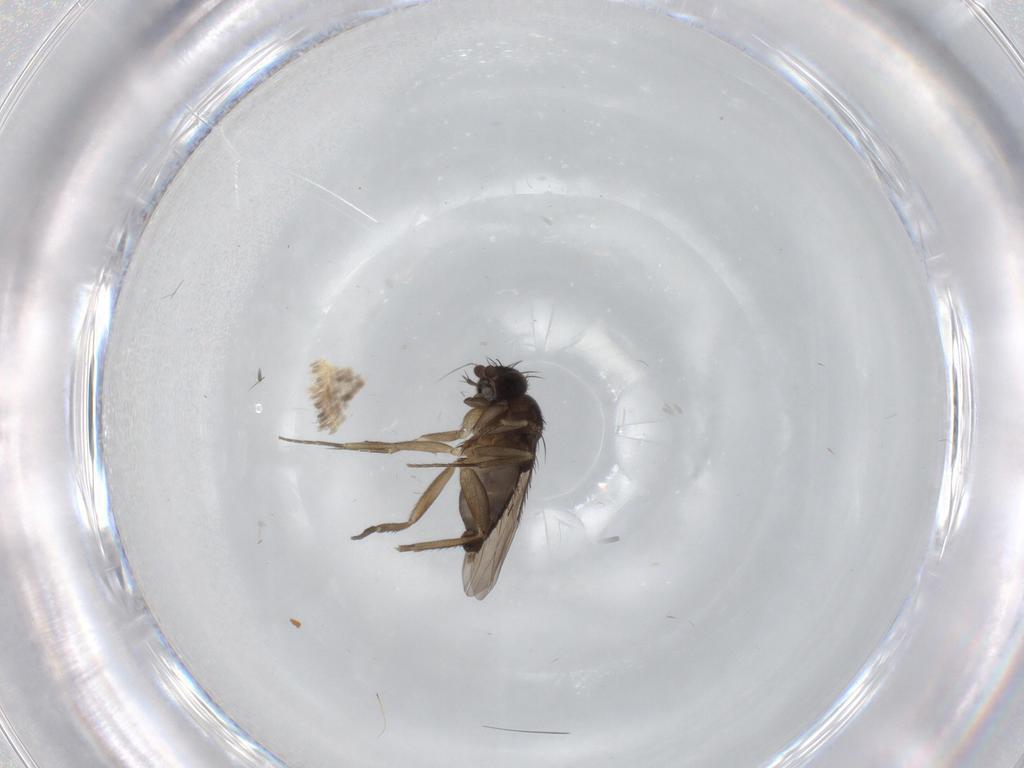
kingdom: Animalia
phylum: Arthropoda
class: Insecta
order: Diptera
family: Phoridae
